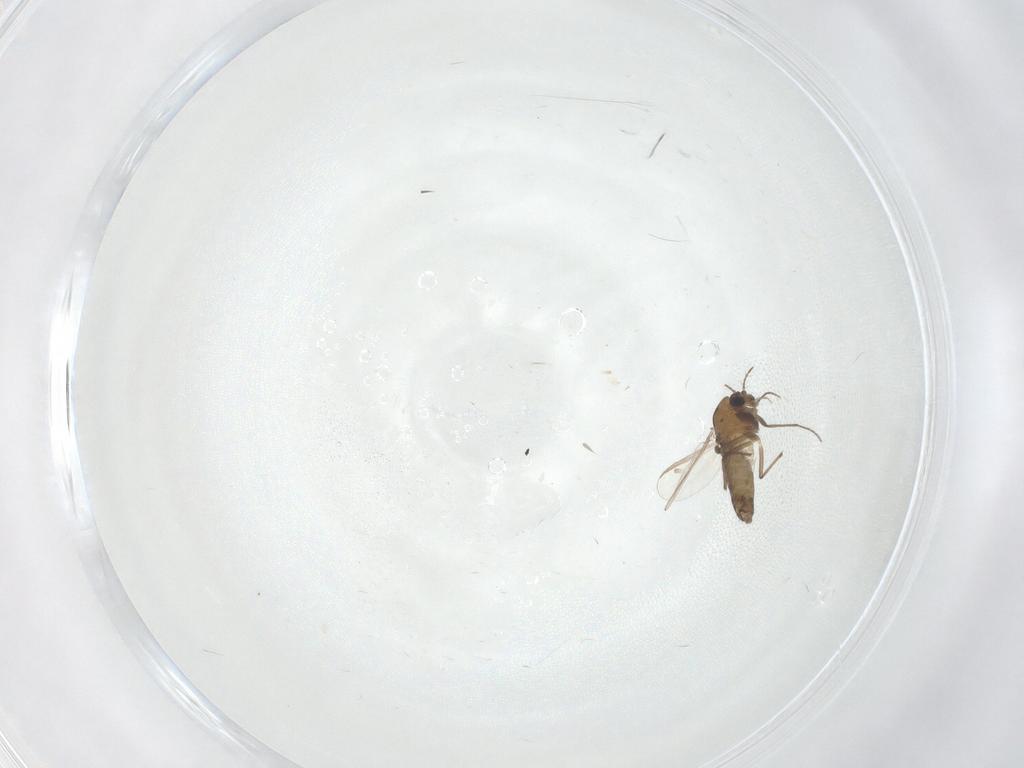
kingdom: Animalia
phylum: Arthropoda
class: Insecta
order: Diptera
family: Chironomidae
